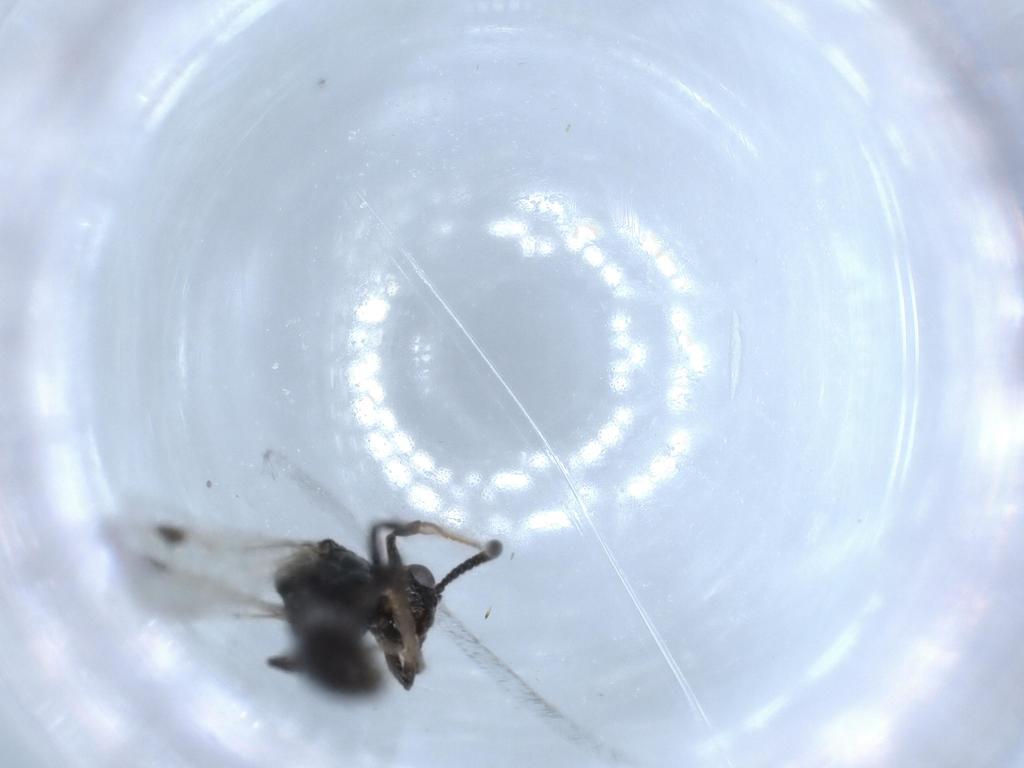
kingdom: Animalia
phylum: Arthropoda
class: Insecta
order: Hymenoptera
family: Formicidae
